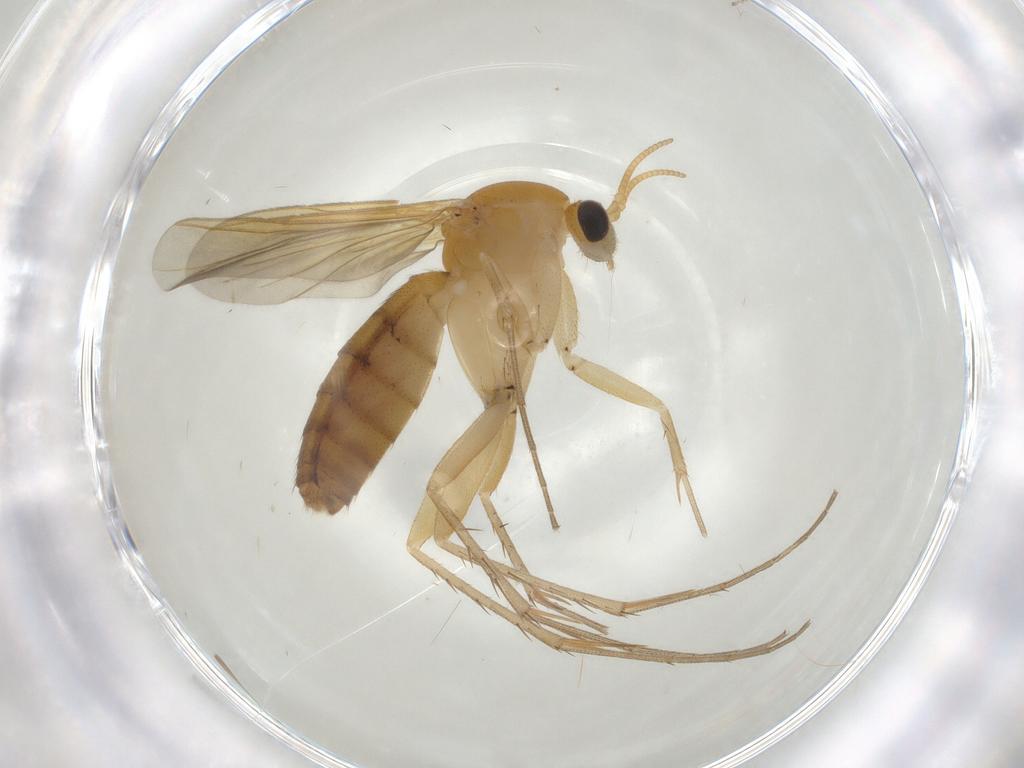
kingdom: Animalia
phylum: Arthropoda
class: Insecta
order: Diptera
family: Mycetophilidae
